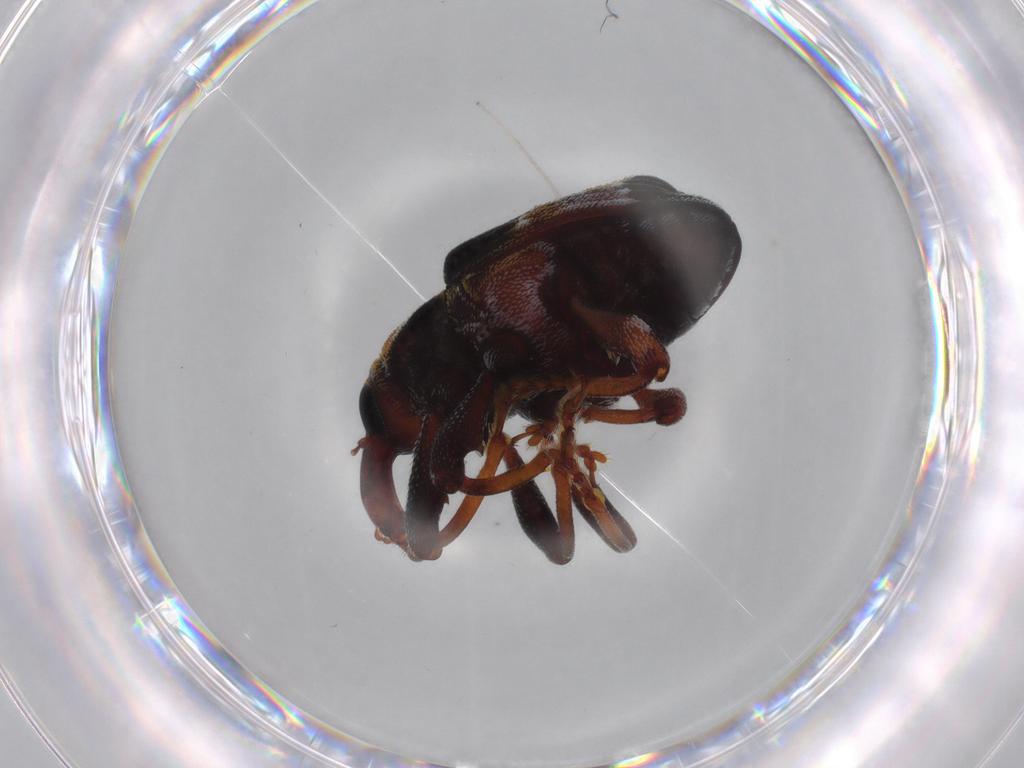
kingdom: Animalia
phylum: Arthropoda
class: Insecta
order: Coleoptera
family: Curculionidae
